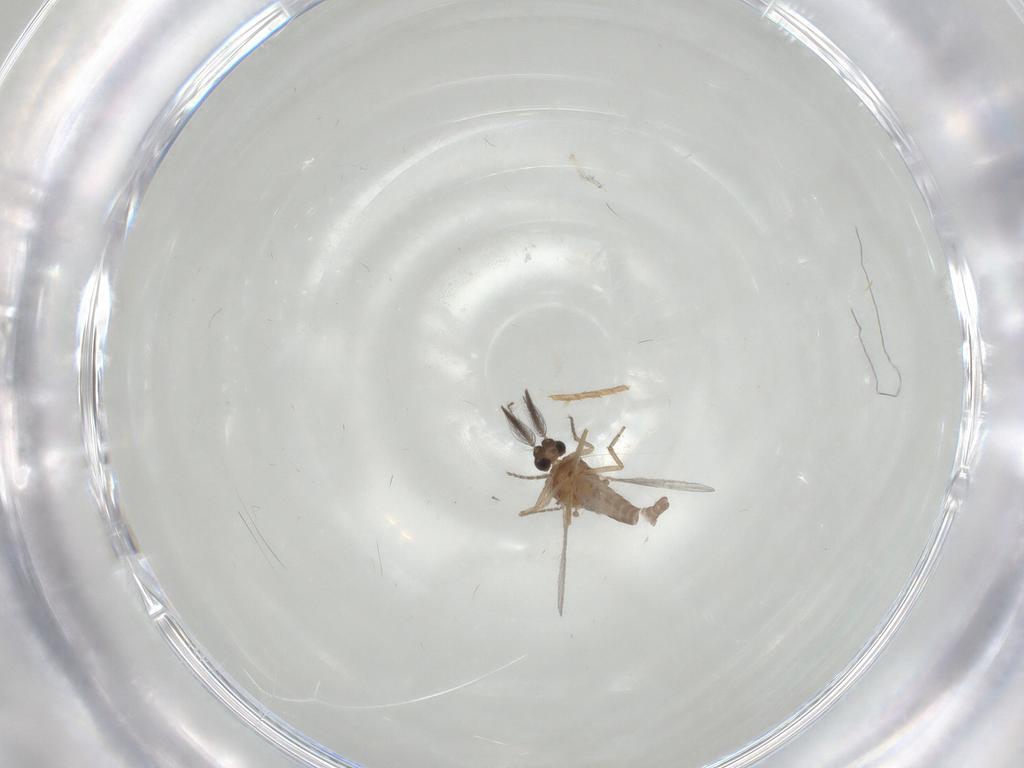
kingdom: Animalia
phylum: Arthropoda
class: Insecta
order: Diptera
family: Ceratopogonidae
